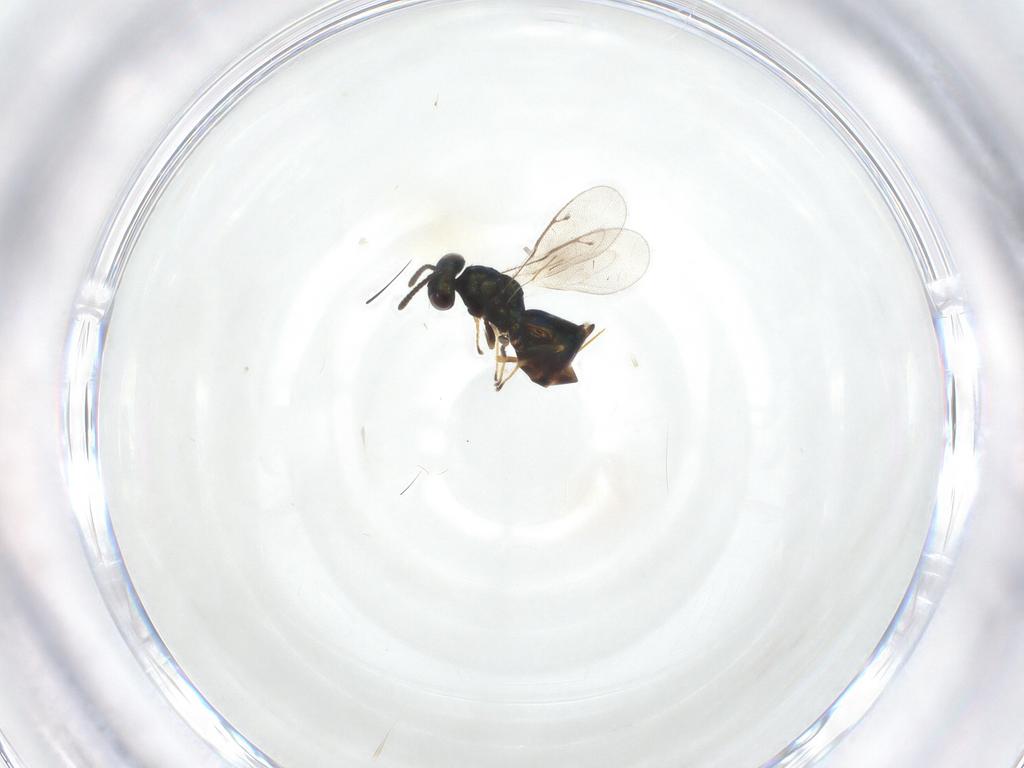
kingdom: Animalia
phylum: Arthropoda
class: Insecta
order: Hymenoptera
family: Pteromalidae
